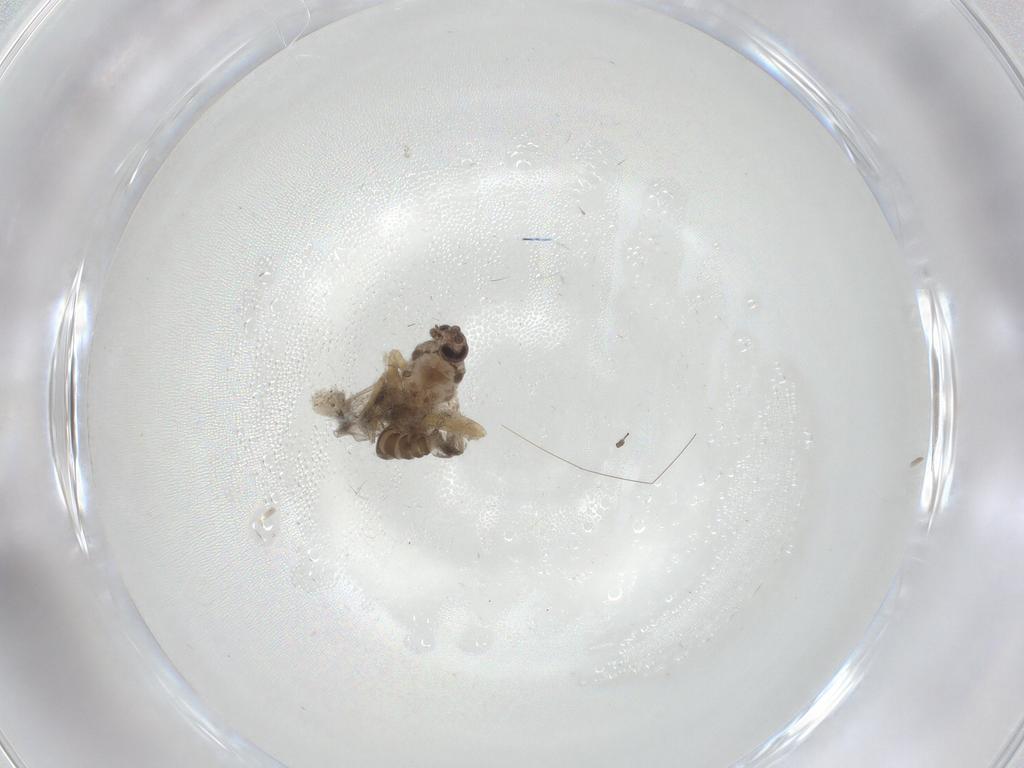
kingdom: Animalia
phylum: Arthropoda
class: Insecta
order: Diptera
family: Ceratopogonidae
